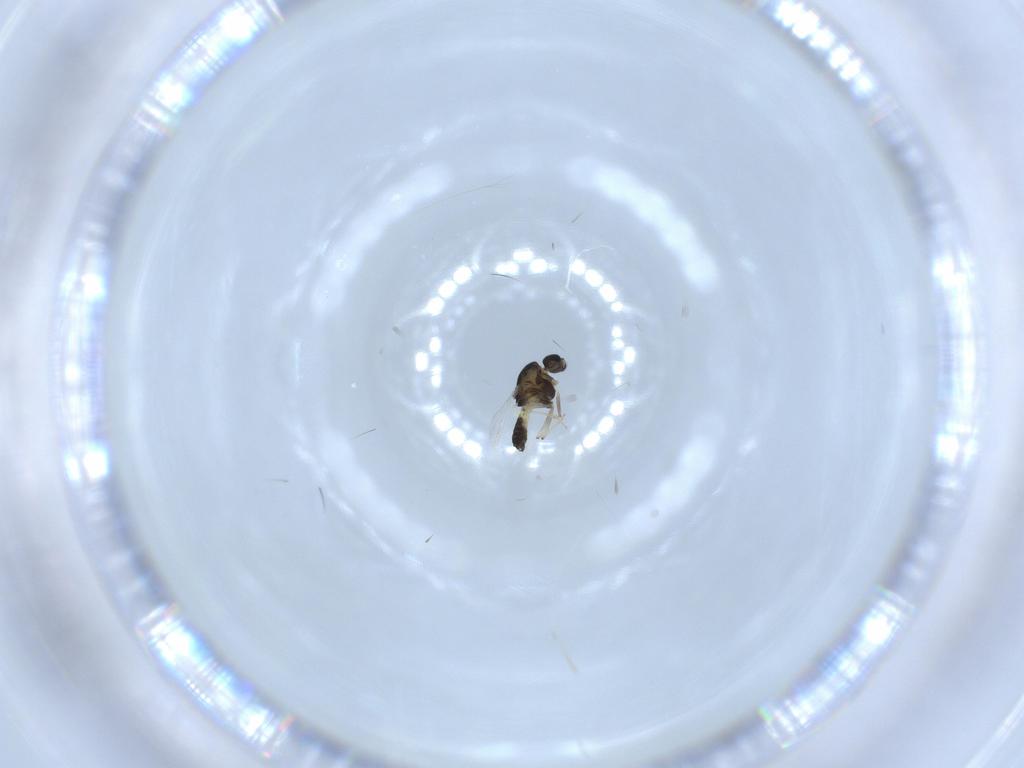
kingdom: Animalia
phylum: Arthropoda
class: Insecta
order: Diptera
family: Chironomidae
